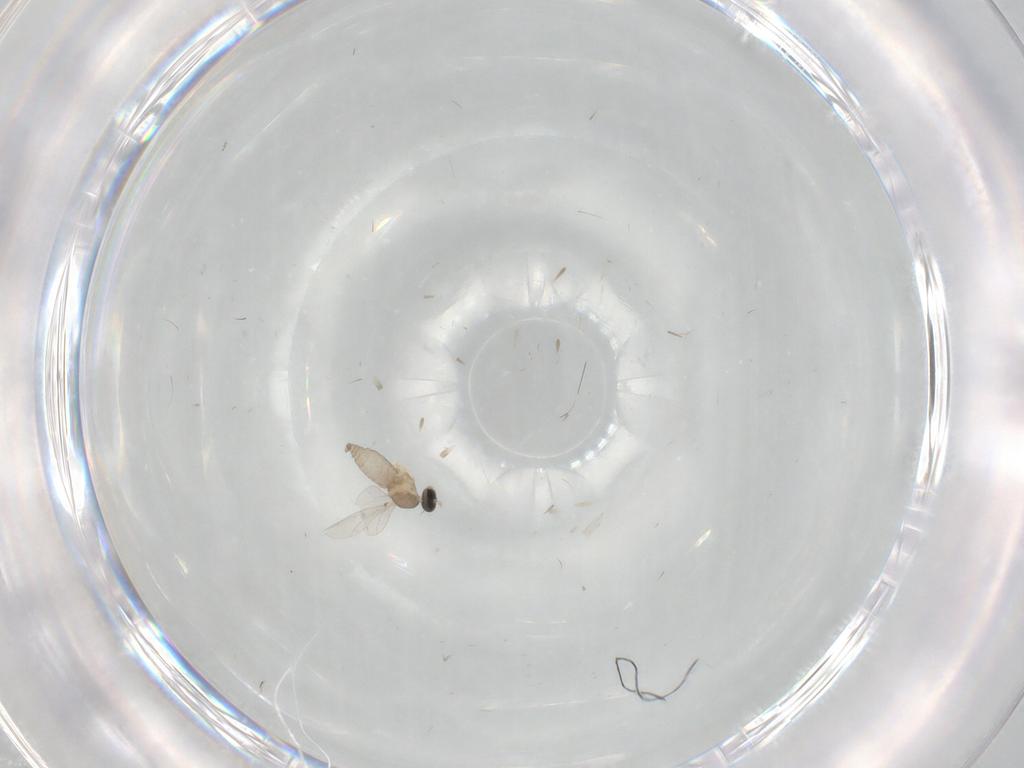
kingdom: Animalia
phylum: Arthropoda
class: Insecta
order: Diptera
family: Cecidomyiidae
